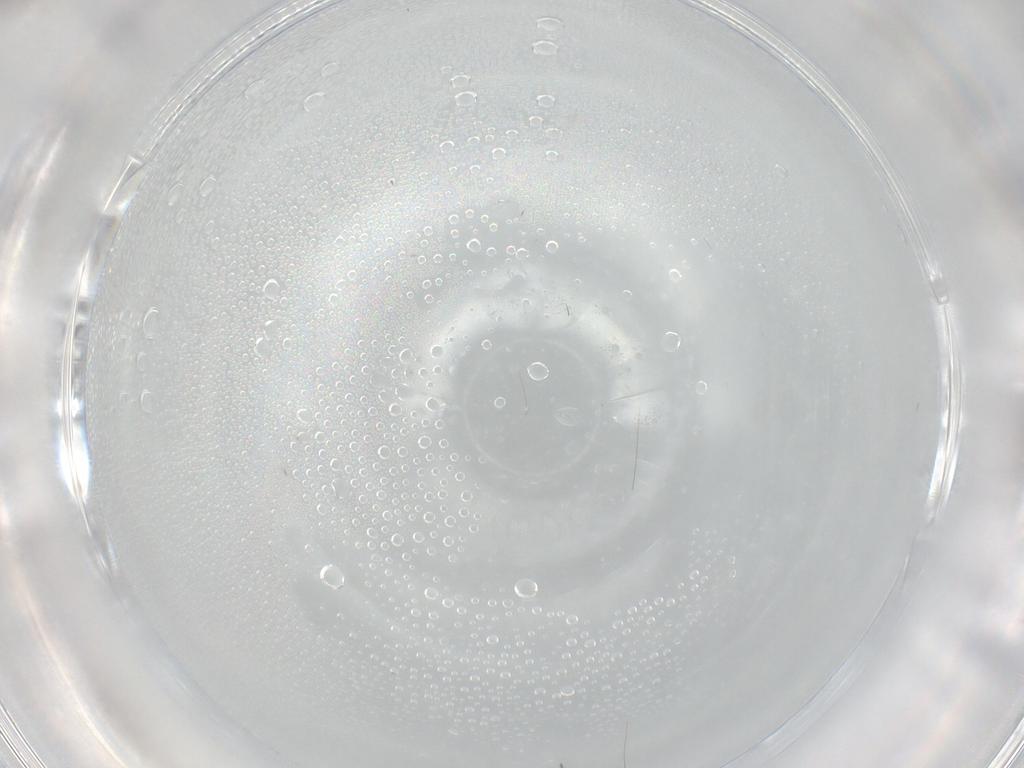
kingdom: Animalia
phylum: Arthropoda
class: Insecta
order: Hymenoptera
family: Scelionidae
